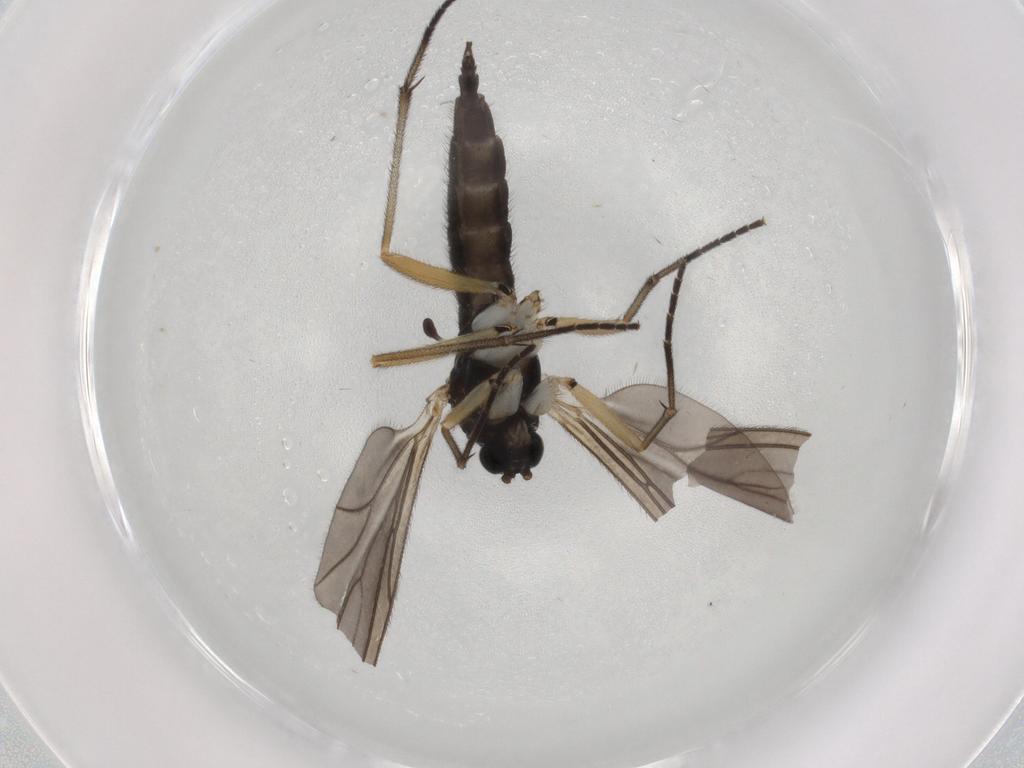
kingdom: Animalia
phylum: Arthropoda
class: Insecta
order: Diptera
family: Sciaridae
